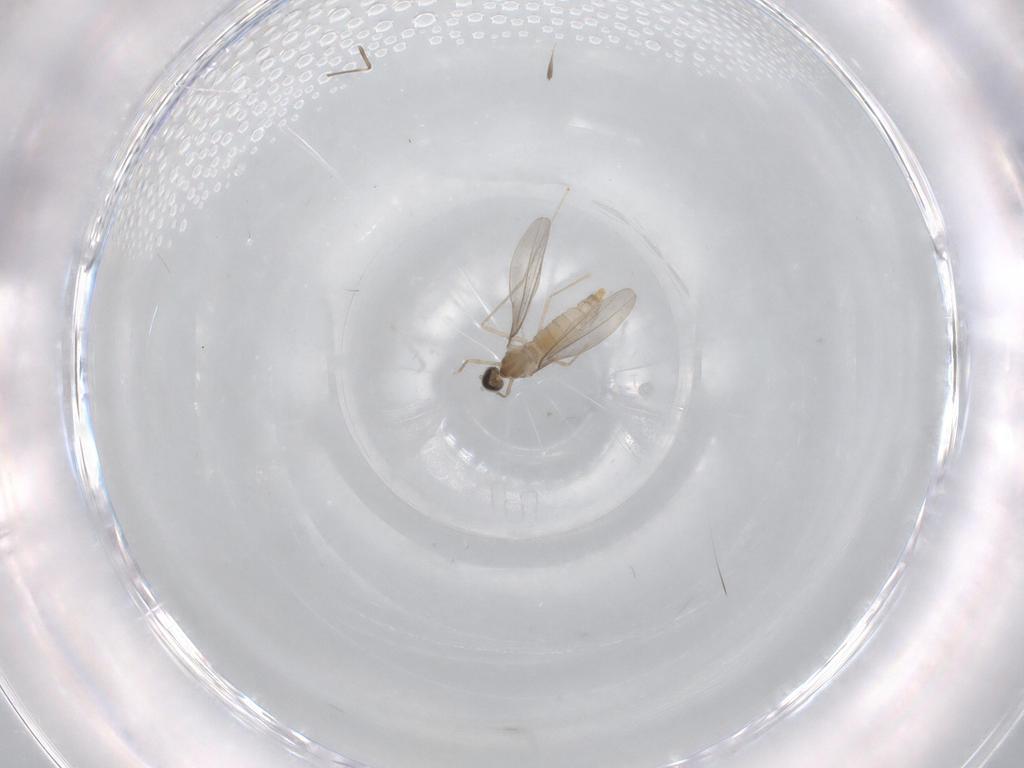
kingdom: Animalia
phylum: Arthropoda
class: Insecta
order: Diptera
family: Cecidomyiidae
